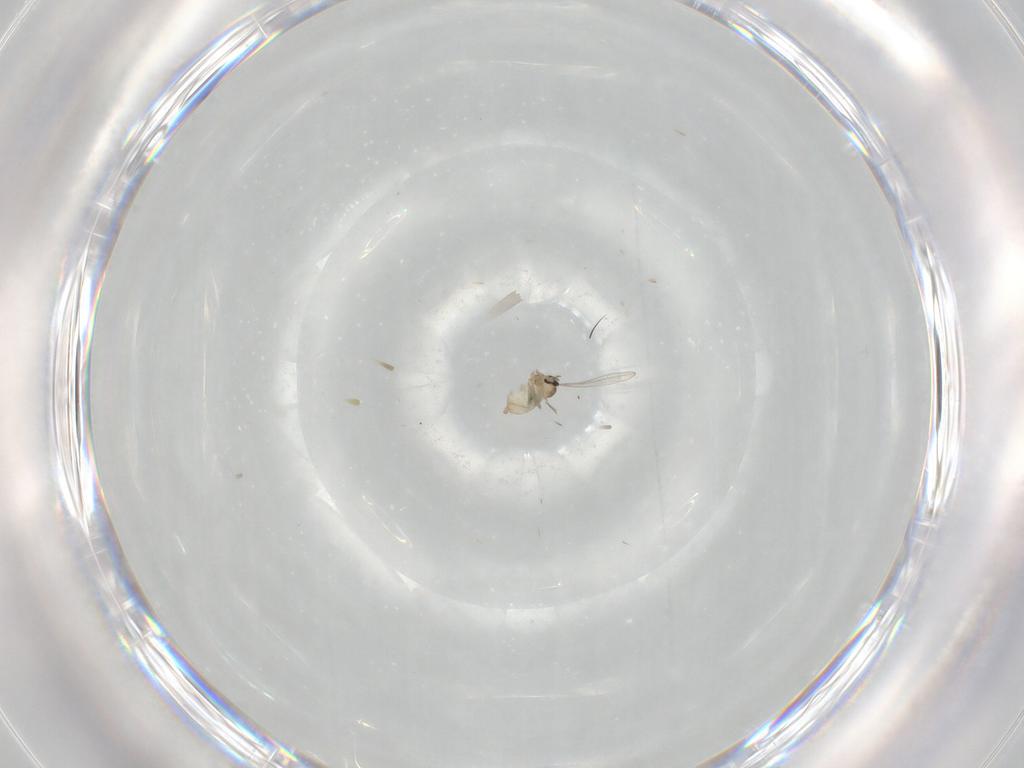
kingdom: Animalia
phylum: Arthropoda
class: Insecta
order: Diptera
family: Cecidomyiidae
